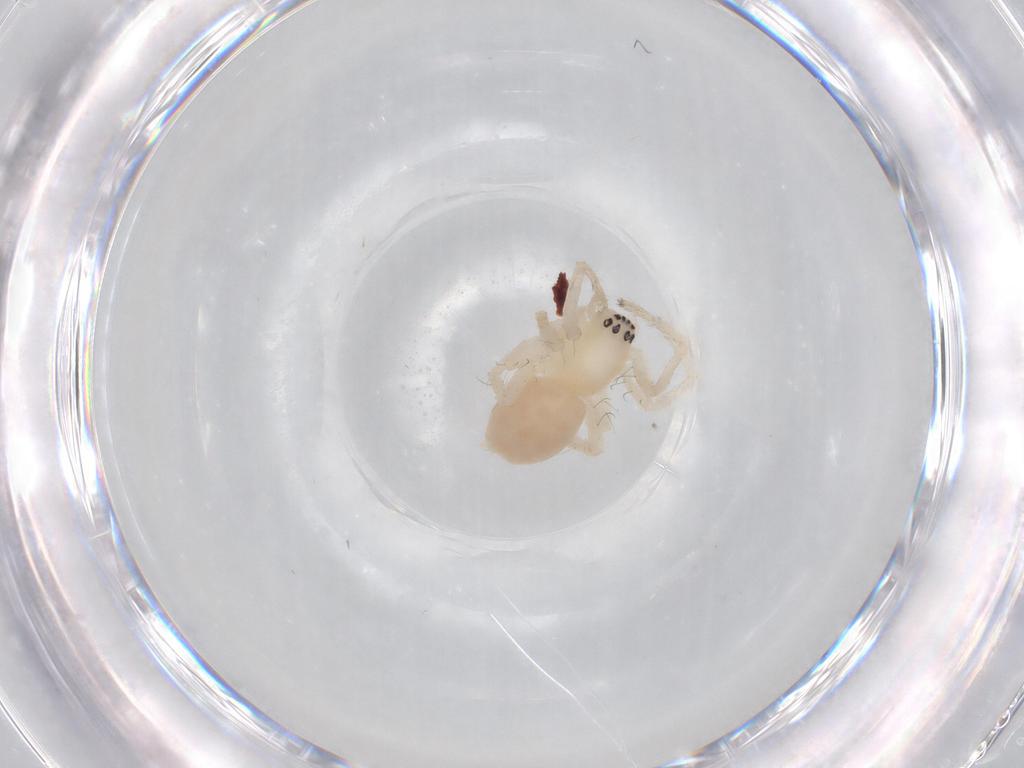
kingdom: Animalia
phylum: Arthropoda
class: Arachnida
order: Araneae
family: Anyphaenidae
